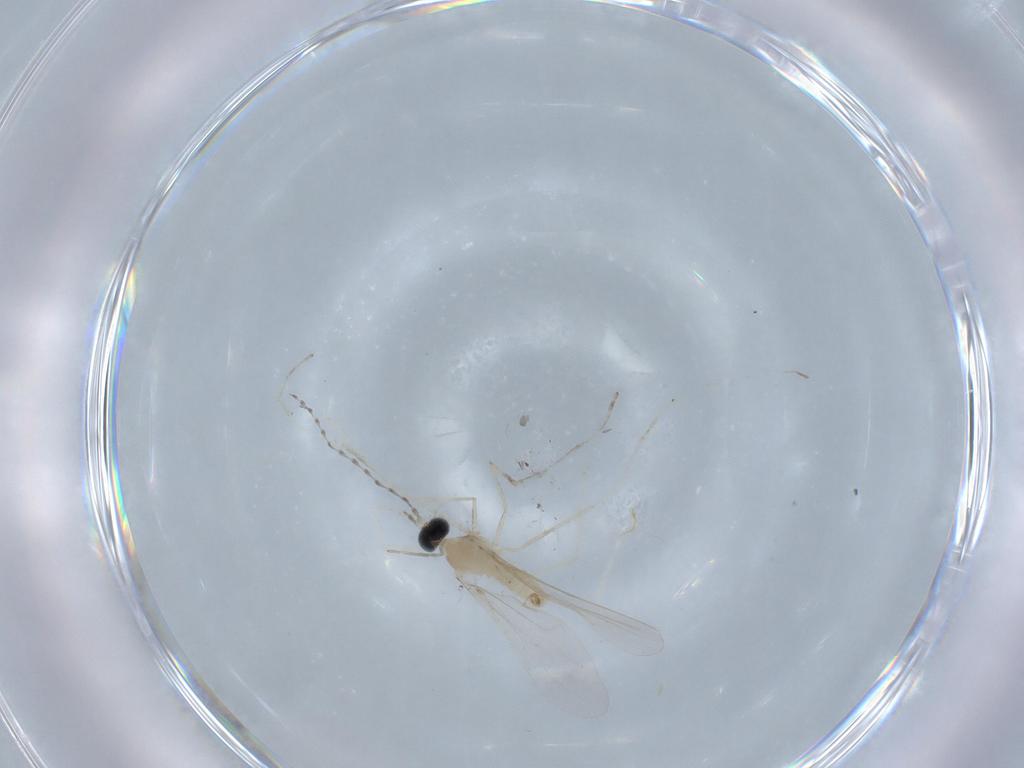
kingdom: Animalia
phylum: Arthropoda
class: Insecta
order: Diptera
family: Cecidomyiidae
